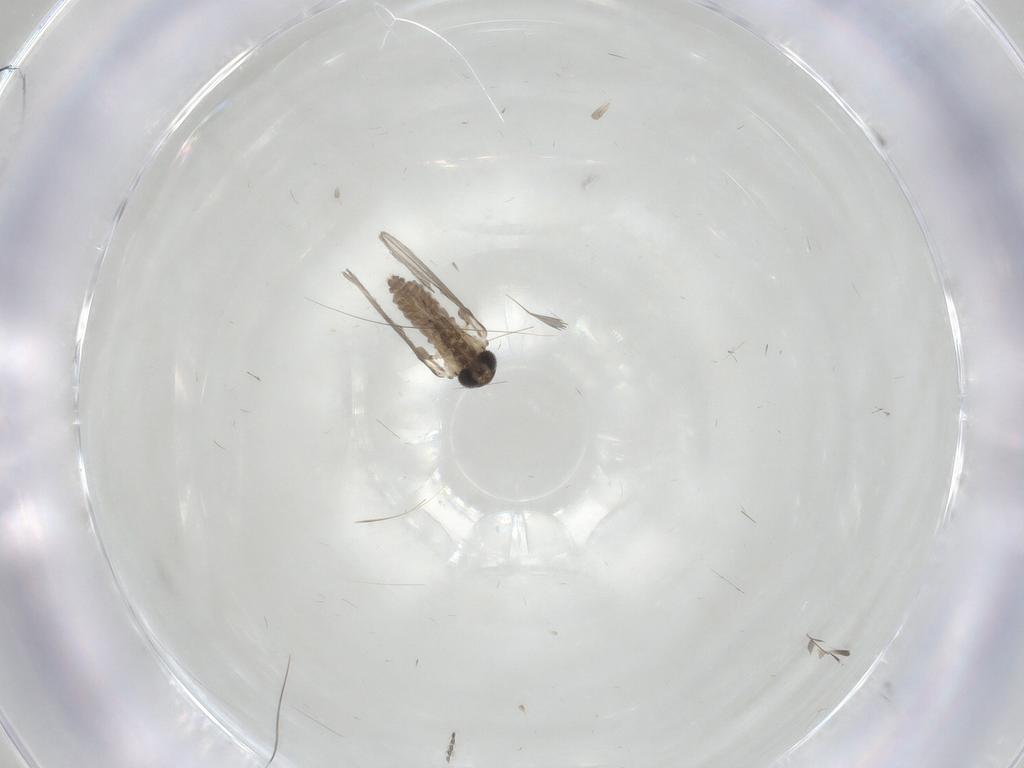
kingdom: Animalia
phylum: Arthropoda
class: Insecta
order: Diptera
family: Psychodidae
